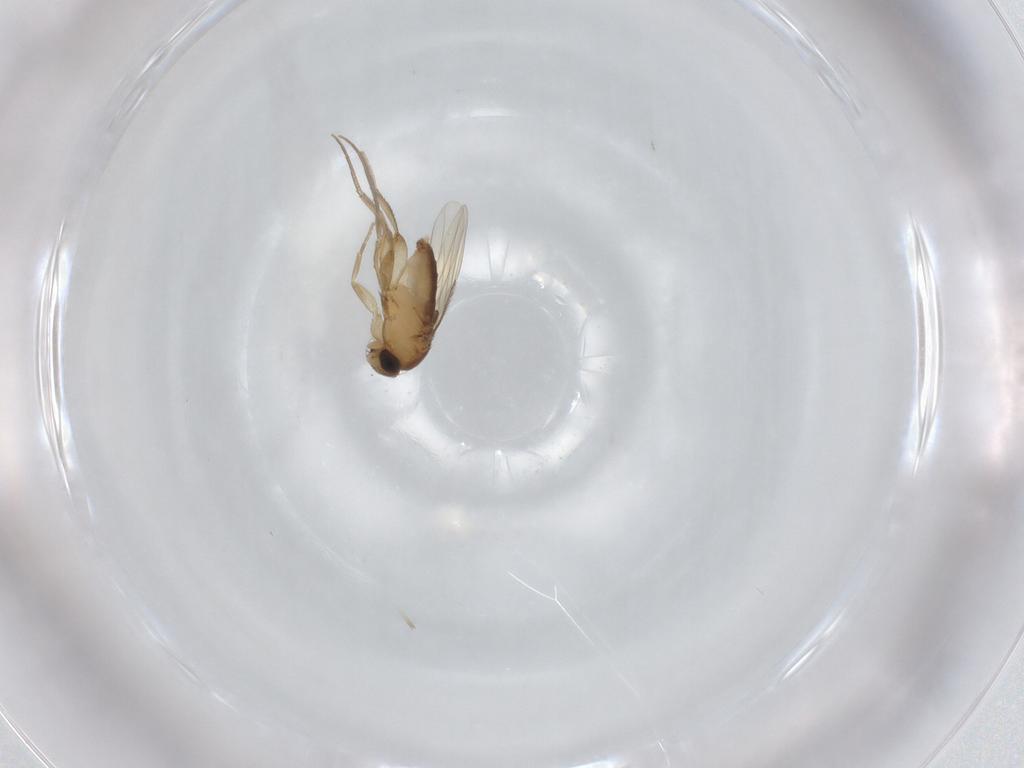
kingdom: Animalia
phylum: Arthropoda
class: Insecta
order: Diptera
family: Phoridae
